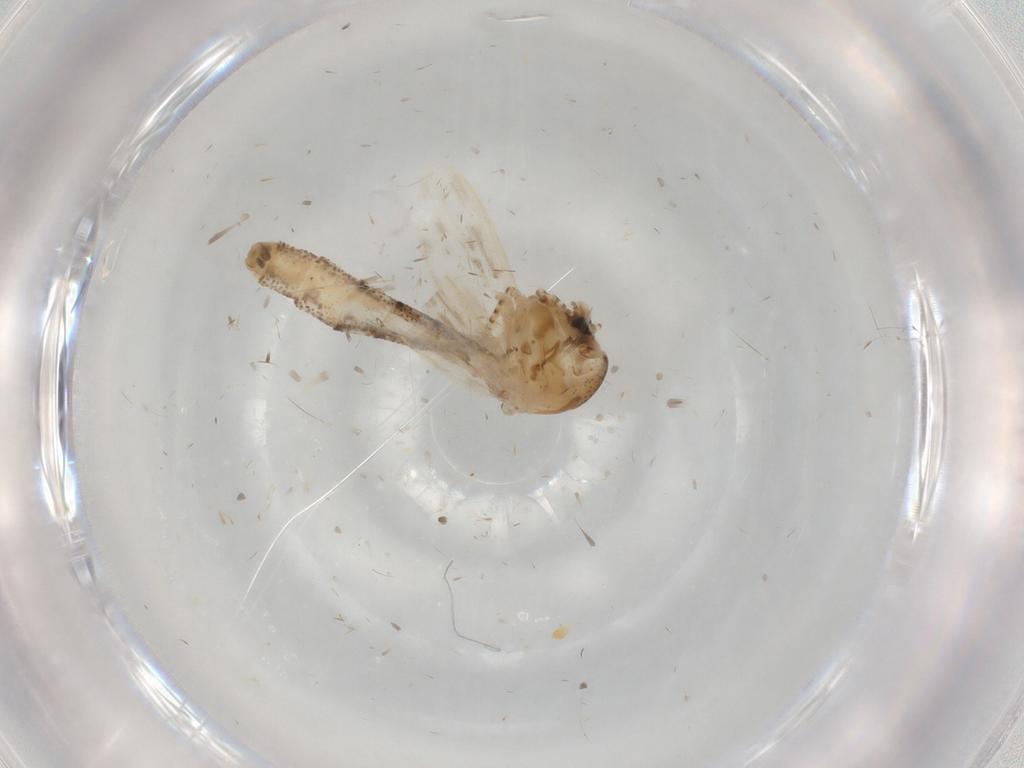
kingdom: Animalia
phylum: Arthropoda
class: Insecta
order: Diptera
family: Chaoboridae
